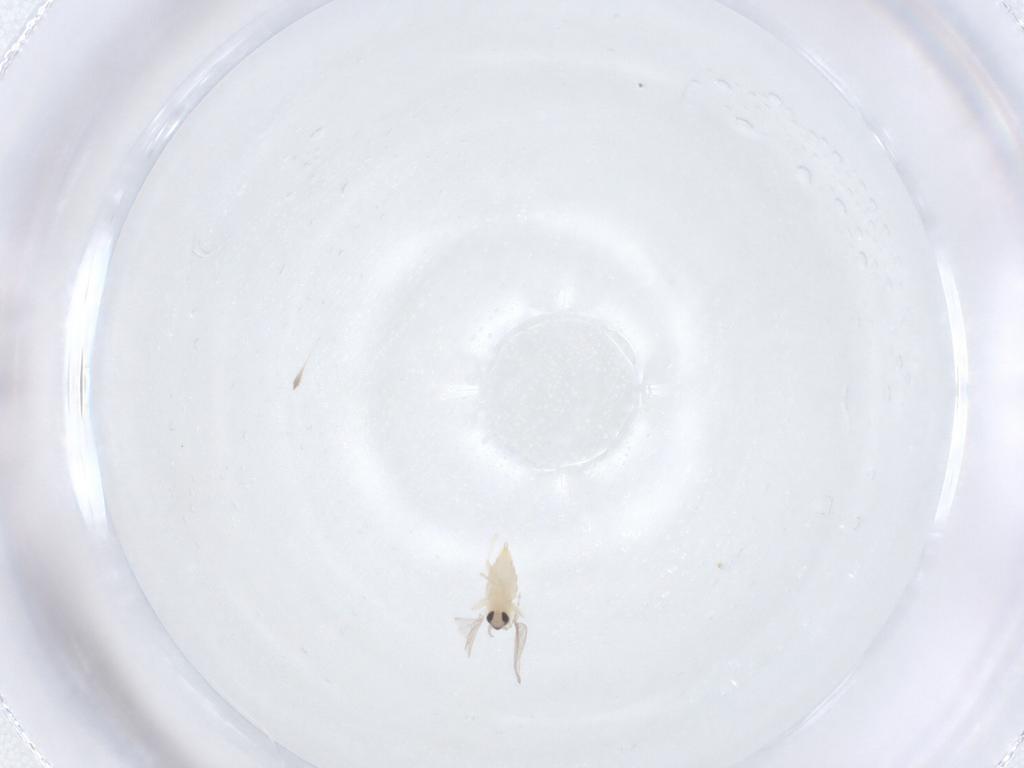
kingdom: Animalia
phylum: Arthropoda
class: Insecta
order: Diptera
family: Cecidomyiidae
